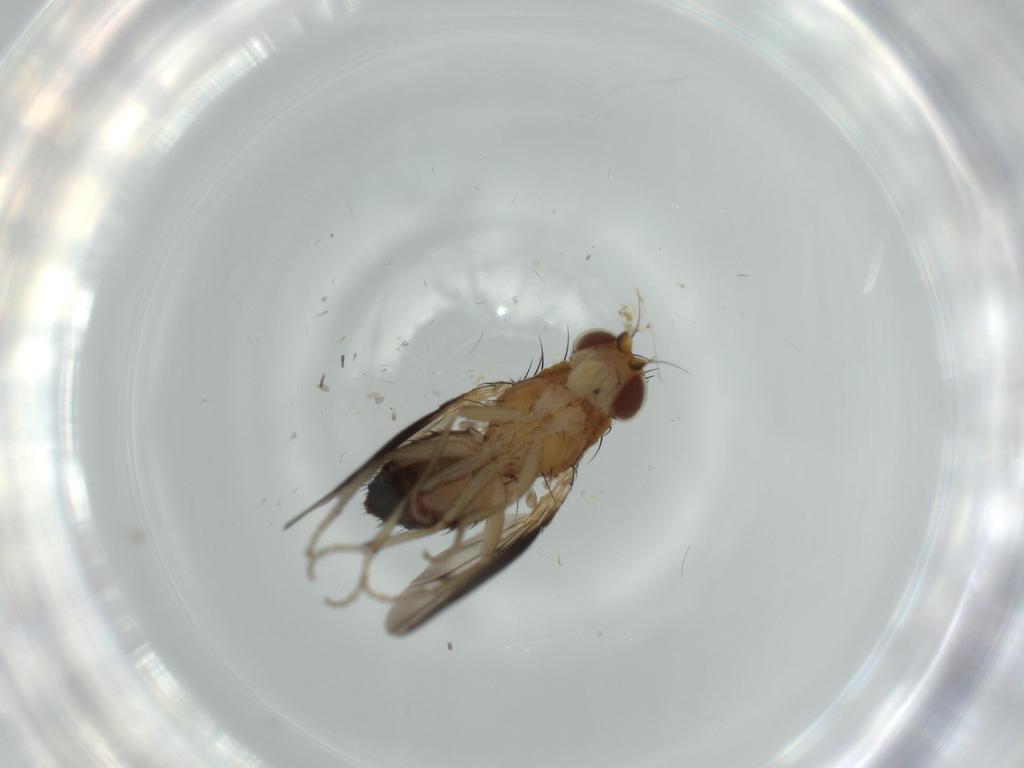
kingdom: Animalia
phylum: Arthropoda
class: Insecta
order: Diptera
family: Heleomyzidae
